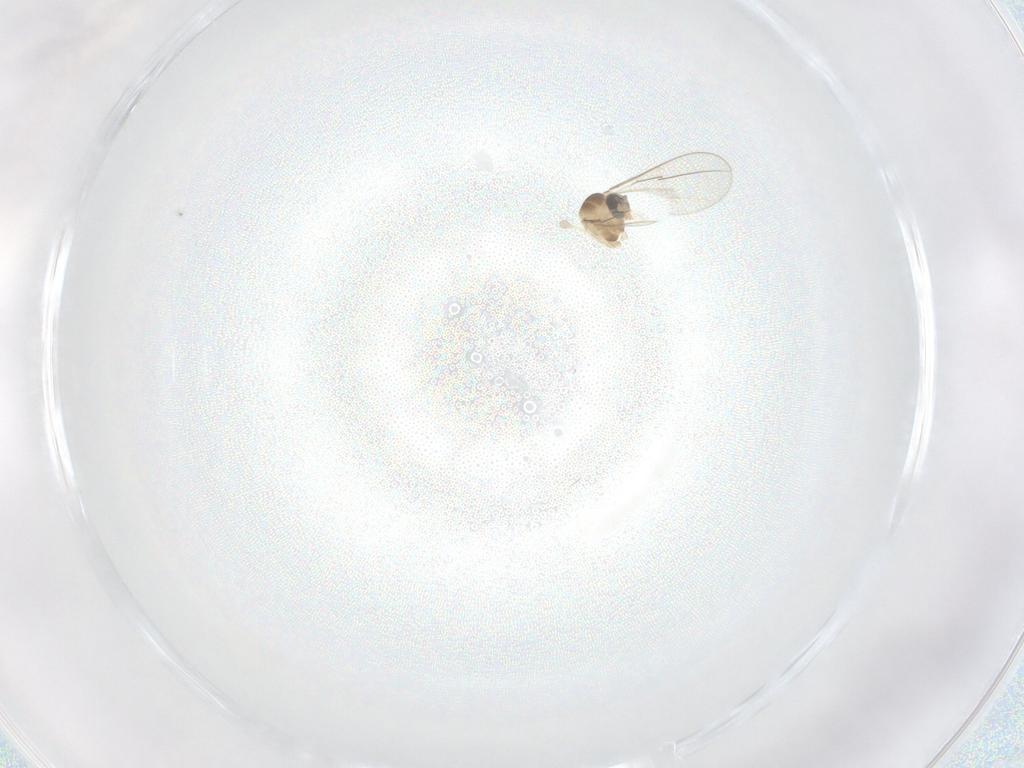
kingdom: Animalia
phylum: Arthropoda
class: Insecta
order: Diptera
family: Cecidomyiidae
